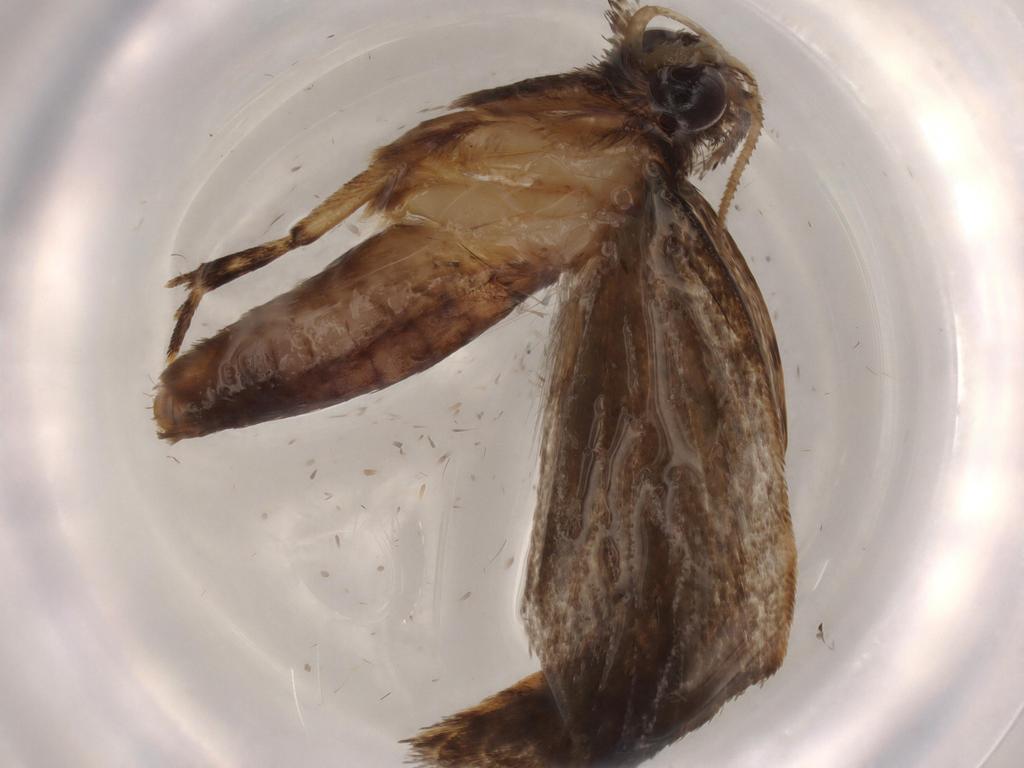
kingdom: Animalia
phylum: Arthropoda
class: Insecta
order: Lepidoptera
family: Tineidae
